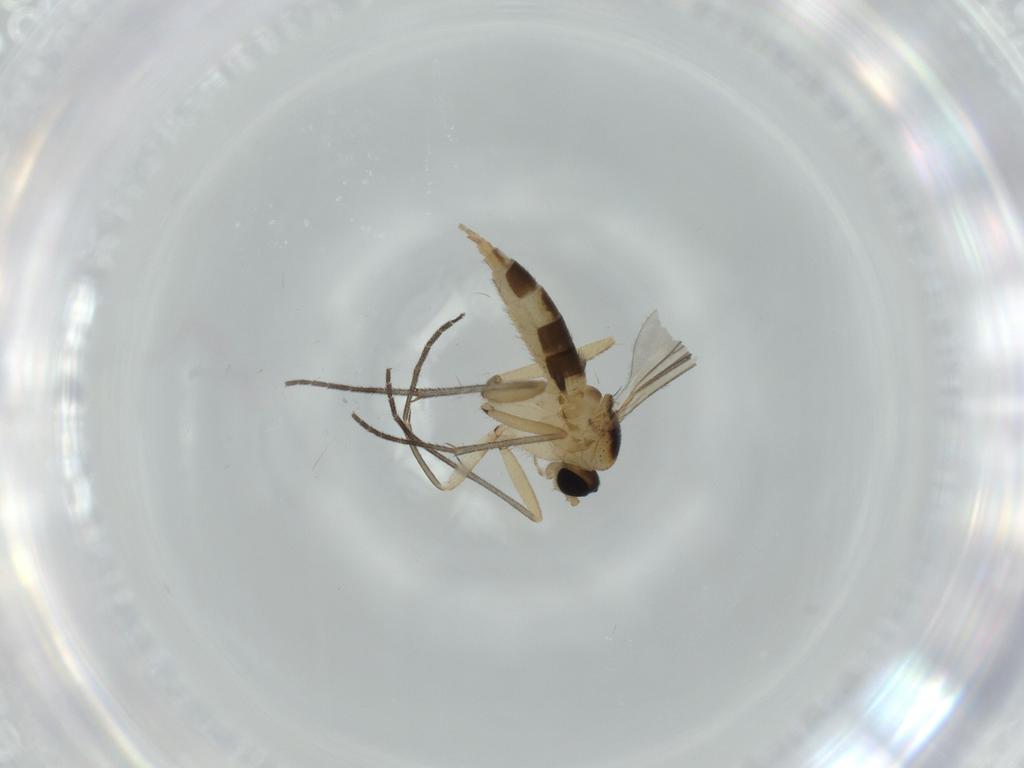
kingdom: Animalia
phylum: Arthropoda
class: Insecta
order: Diptera
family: Sciaridae
